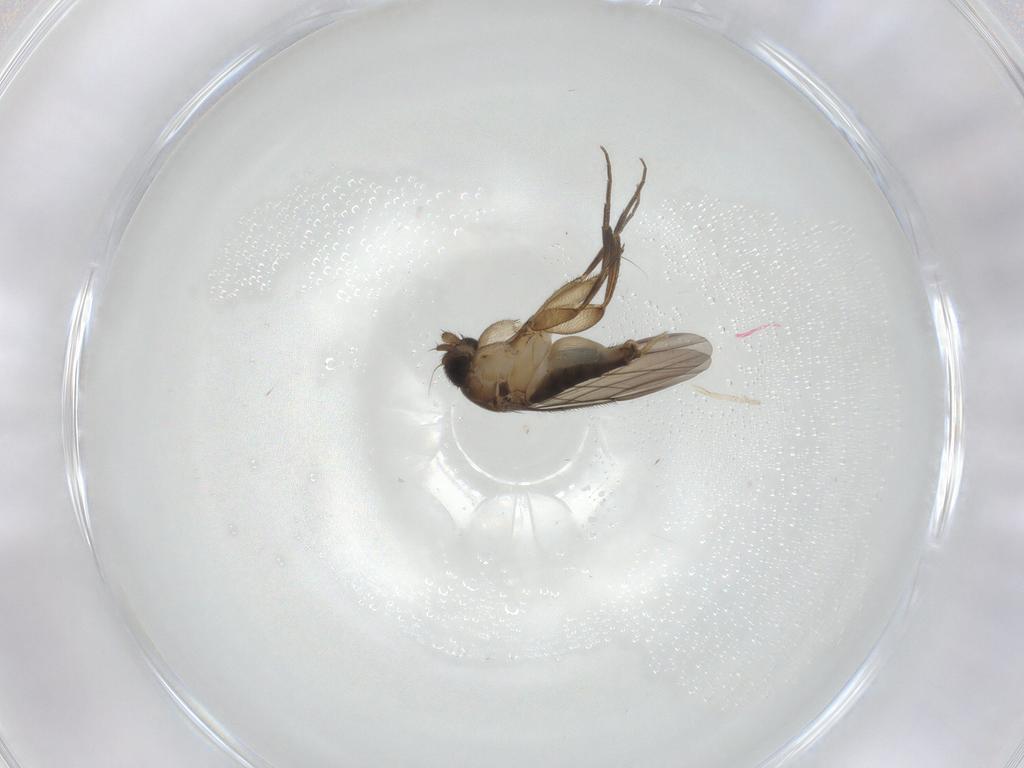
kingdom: Animalia
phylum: Arthropoda
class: Insecta
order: Diptera
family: Phoridae
